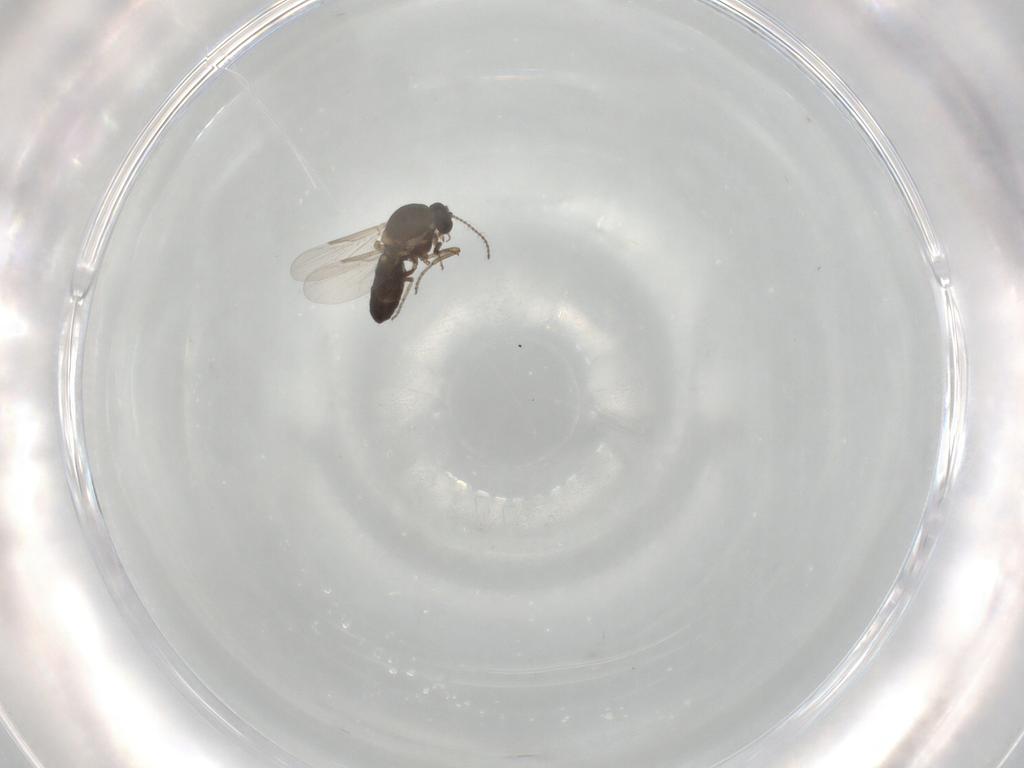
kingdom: Animalia
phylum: Arthropoda
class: Insecta
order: Diptera
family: Ceratopogonidae
